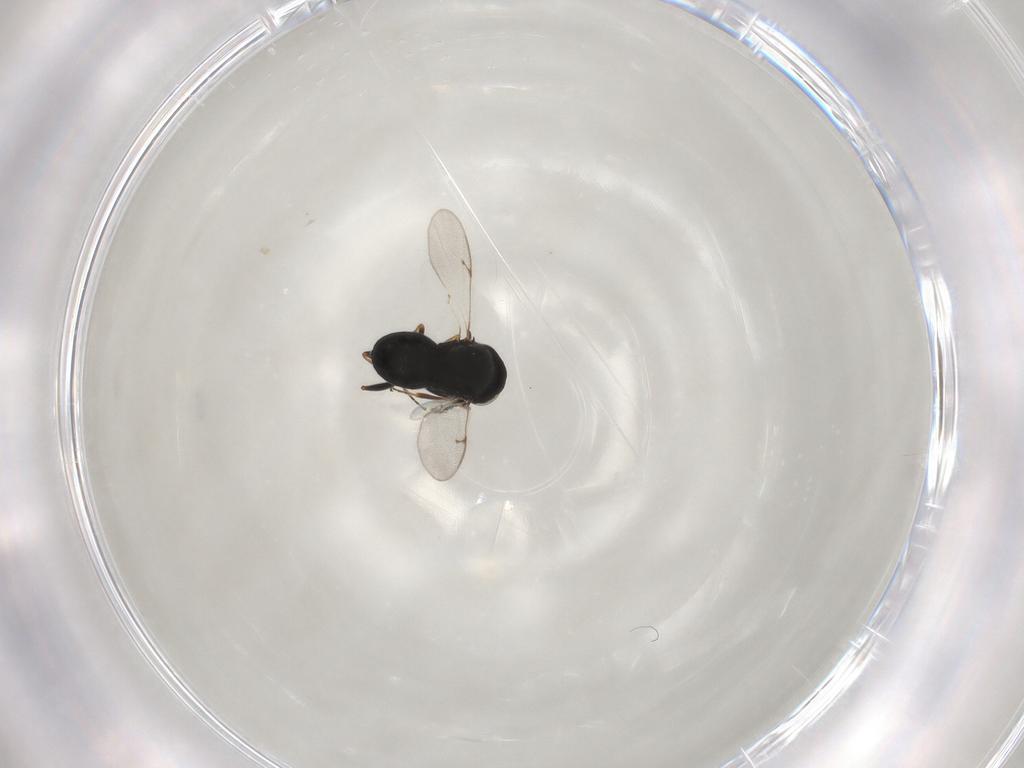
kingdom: Animalia
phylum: Arthropoda
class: Insecta
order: Hymenoptera
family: Scelionidae
